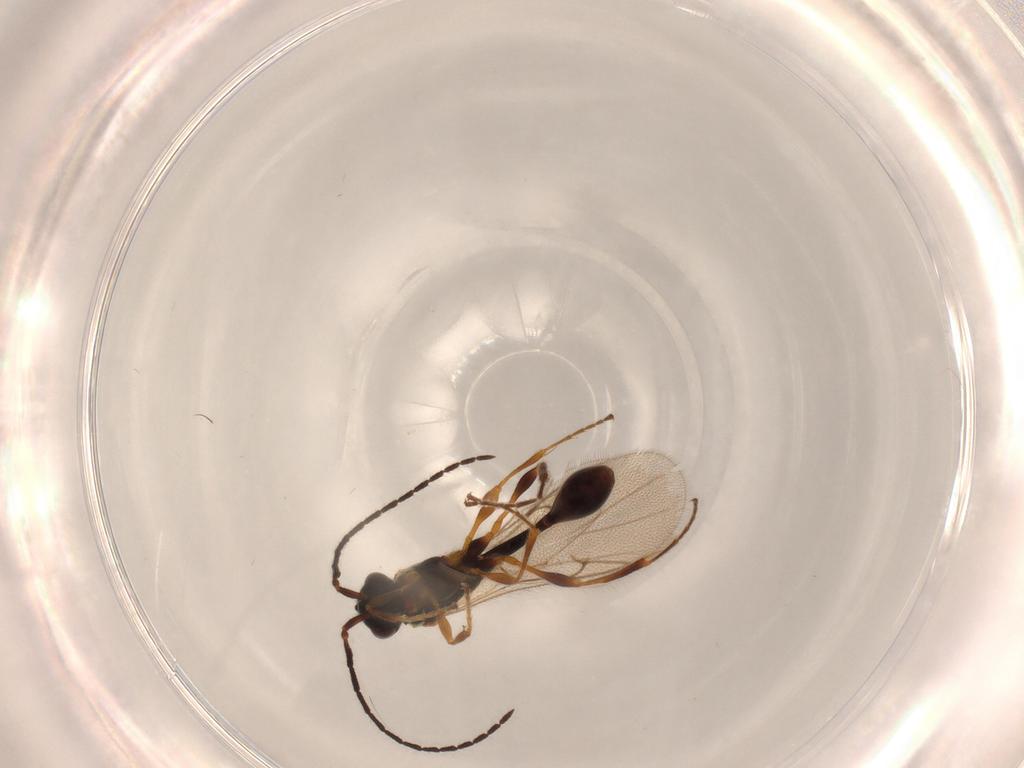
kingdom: Animalia
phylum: Arthropoda
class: Insecta
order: Hymenoptera
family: Diapriidae
